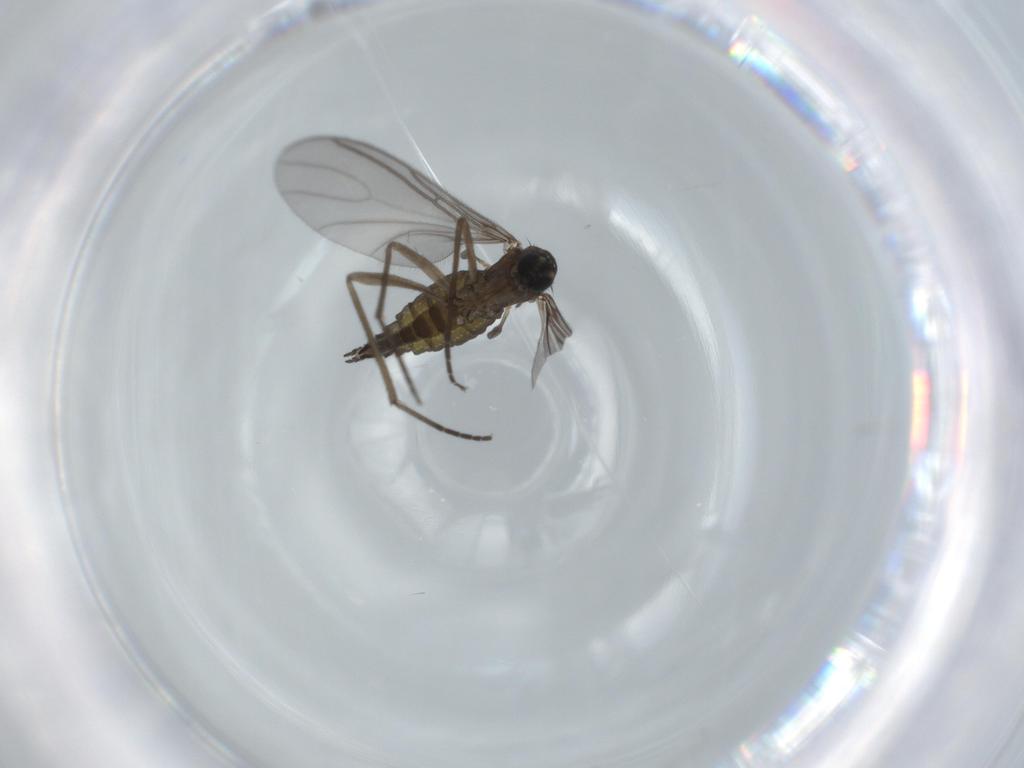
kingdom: Animalia
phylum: Arthropoda
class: Insecta
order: Diptera
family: Sciaridae
